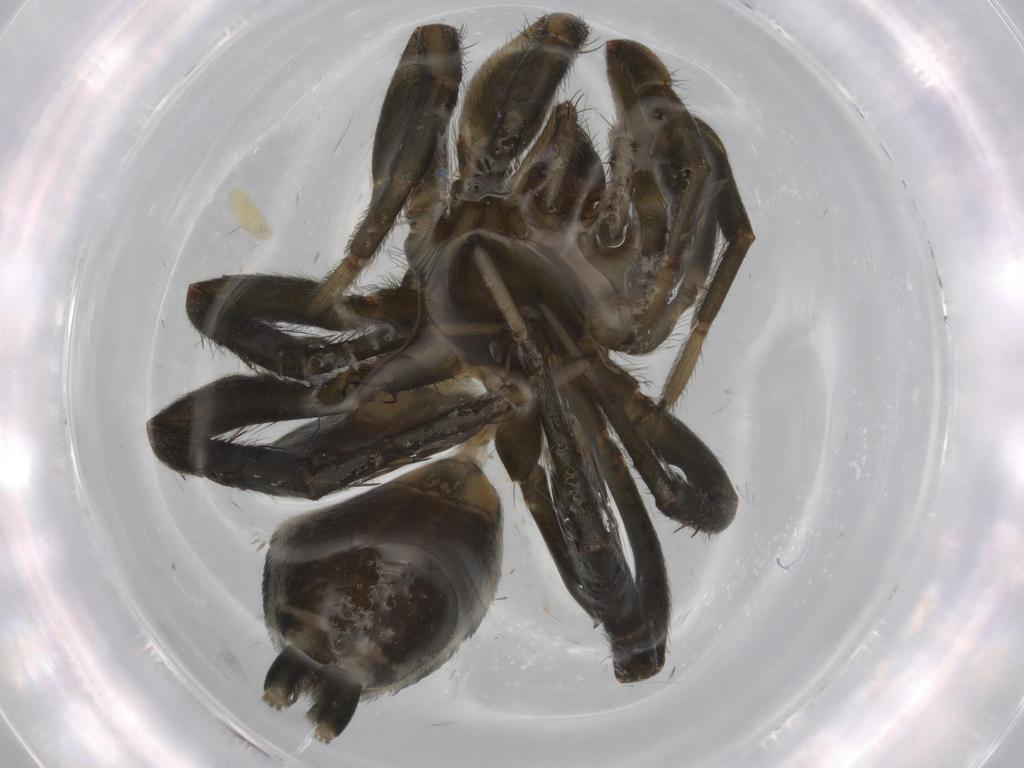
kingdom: Animalia
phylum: Arthropoda
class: Arachnida
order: Araneae
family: Gnaphosidae
